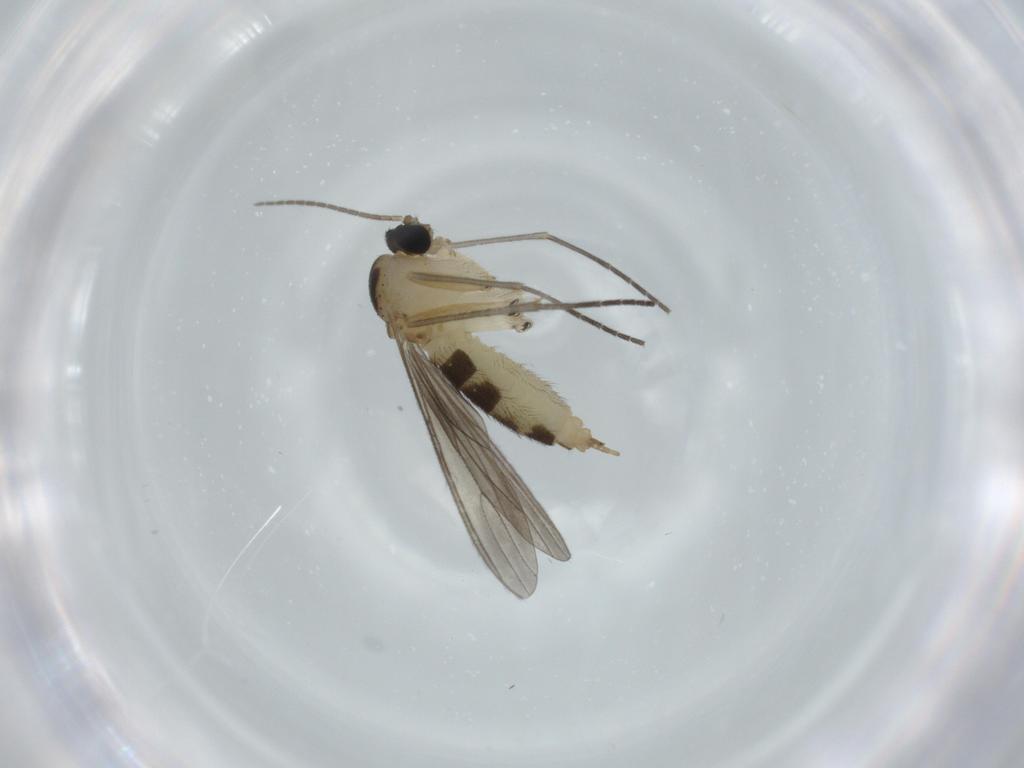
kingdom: Animalia
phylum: Arthropoda
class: Insecta
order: Diptera
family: Sciaridae
